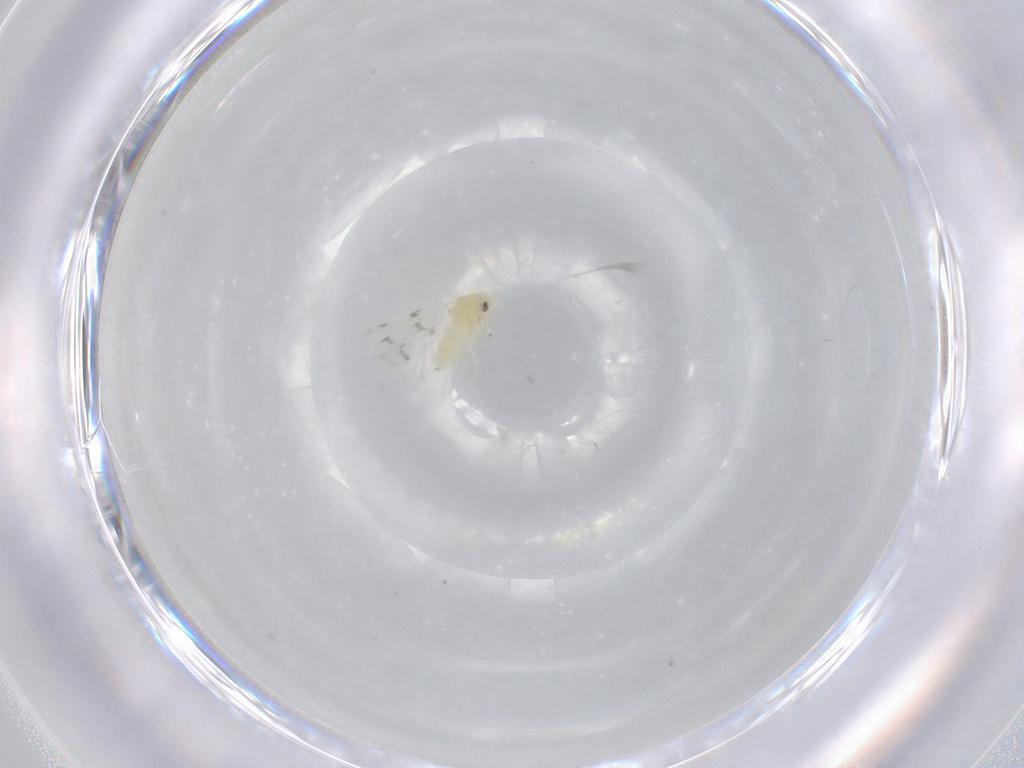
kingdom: Animalia
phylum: Arthropoda
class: Insecta
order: Hemiptera
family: Aleyrodidae
